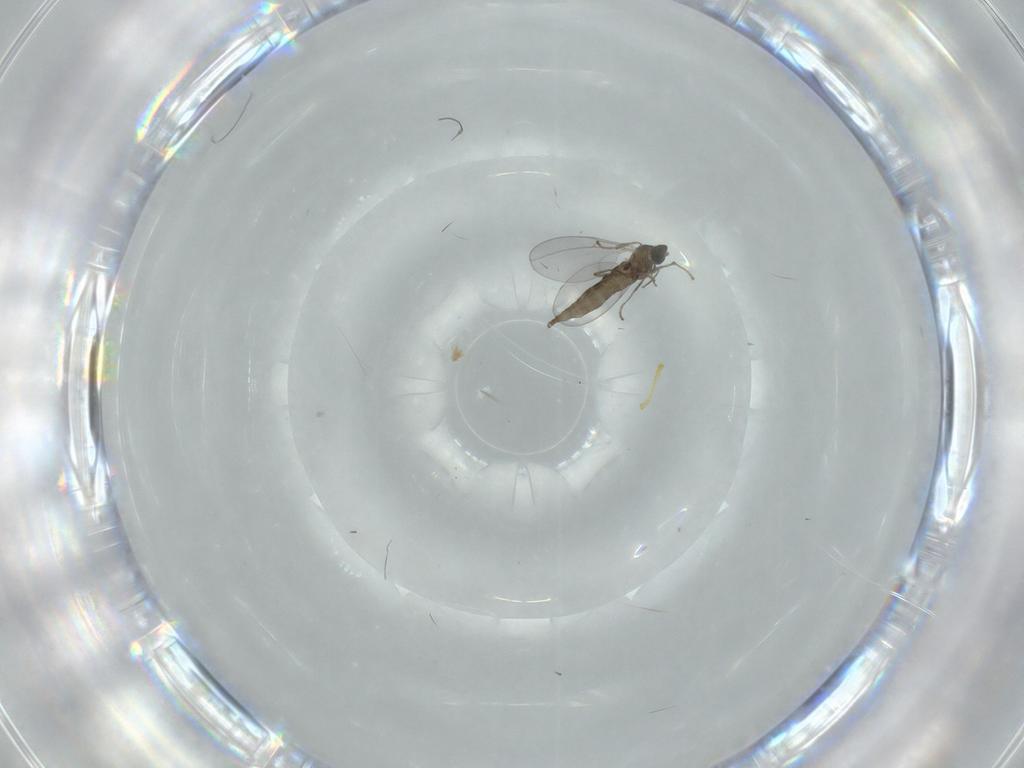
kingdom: Animalia
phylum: Arthropoda
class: Insecta
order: Diptera
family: Cecidomyiidae
